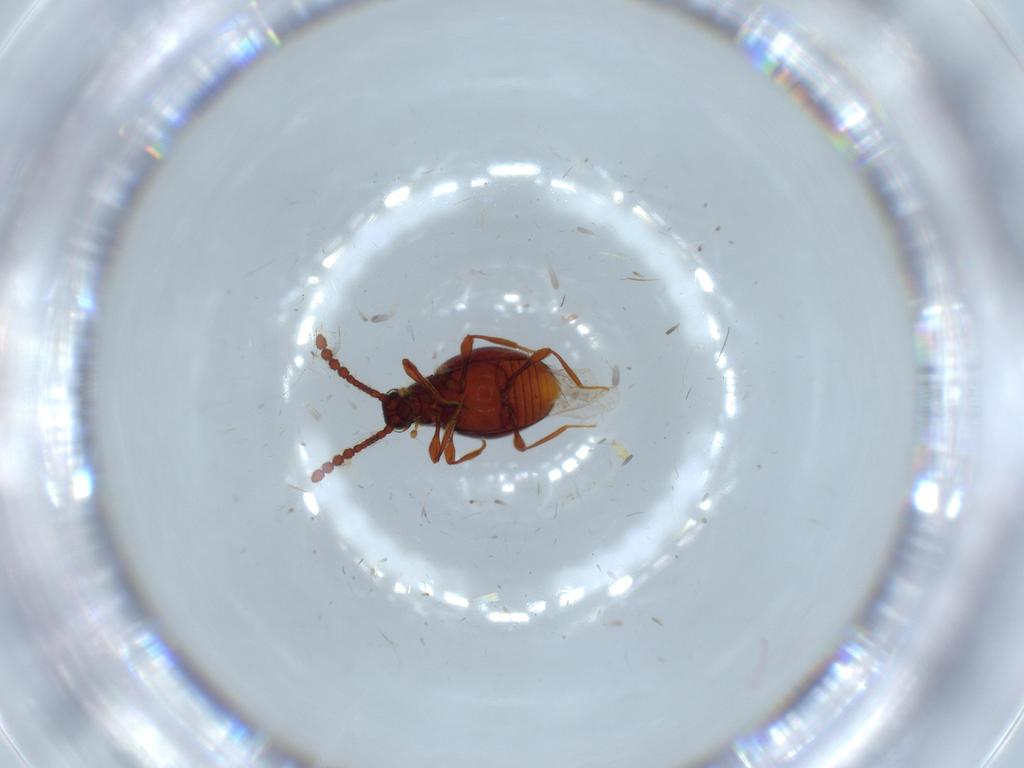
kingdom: Animalia
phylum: Arthropoda
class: Insecta
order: Coleoptera
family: Staphylinidae
